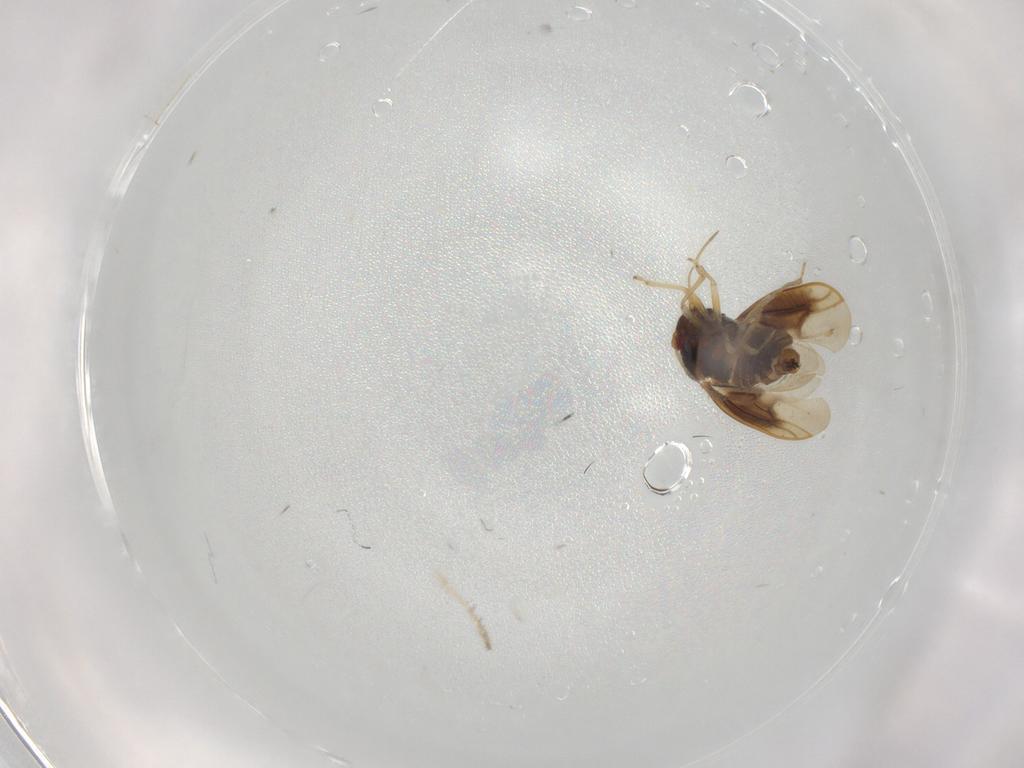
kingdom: Animalia
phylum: Arthropoda
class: Insecta
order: Hemiptera
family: Schizopteridae
